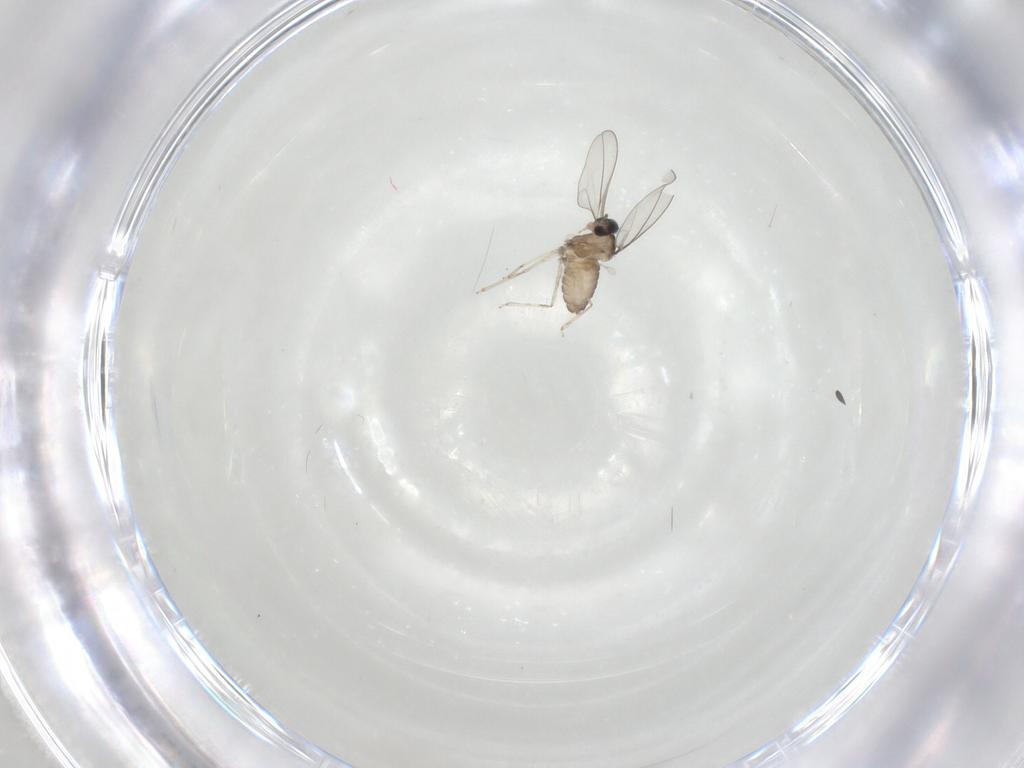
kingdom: Animalia
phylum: Arthropoda
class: Insecta
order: Diptera
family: Cecidomyiidae
